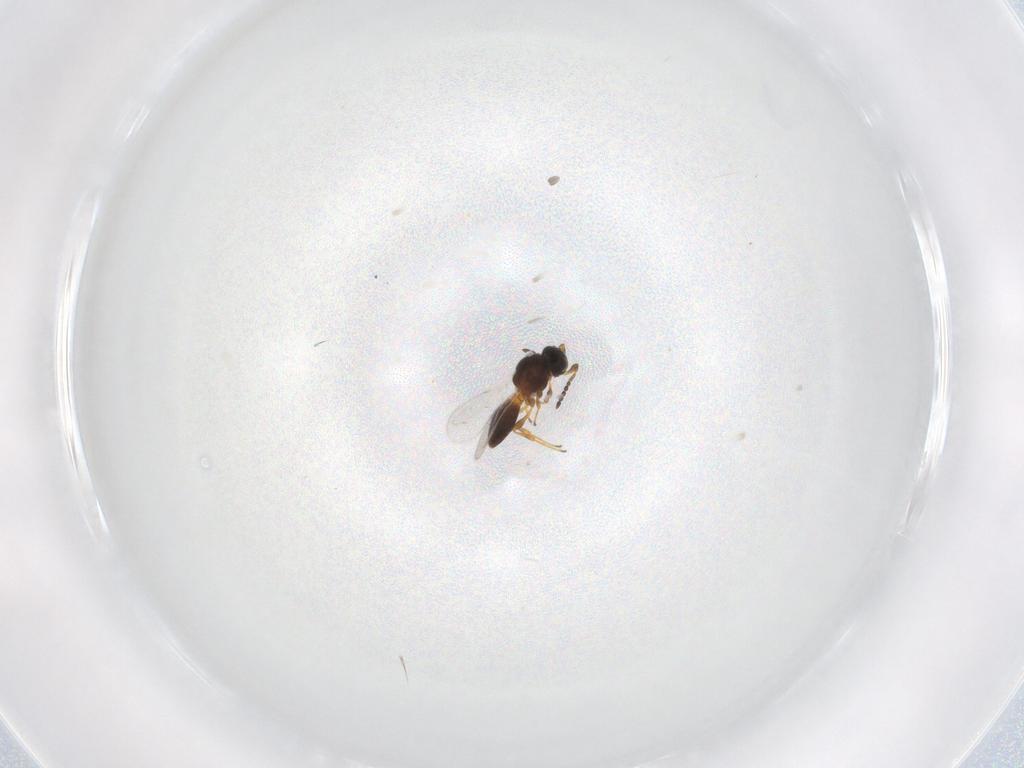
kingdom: Animalia
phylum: Arthropoda
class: Insecta
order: Hymenoptera
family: Platygastridae
